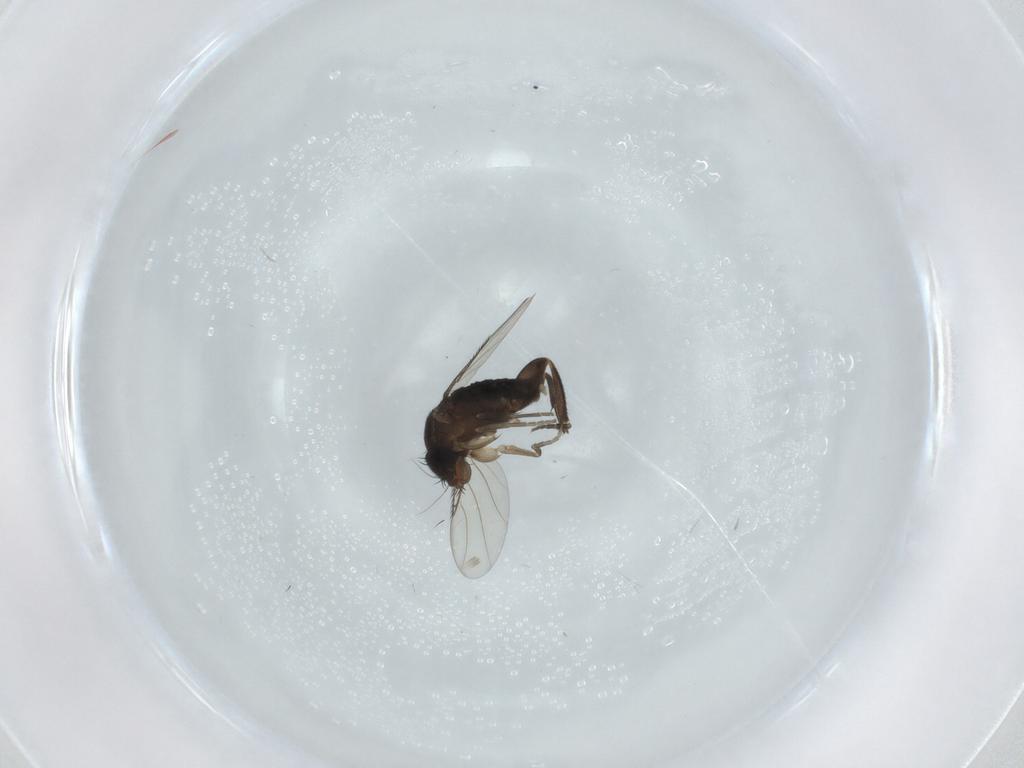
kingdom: Animalia
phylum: Arthropoda
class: Insecta
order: Diptera
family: Phoridae
